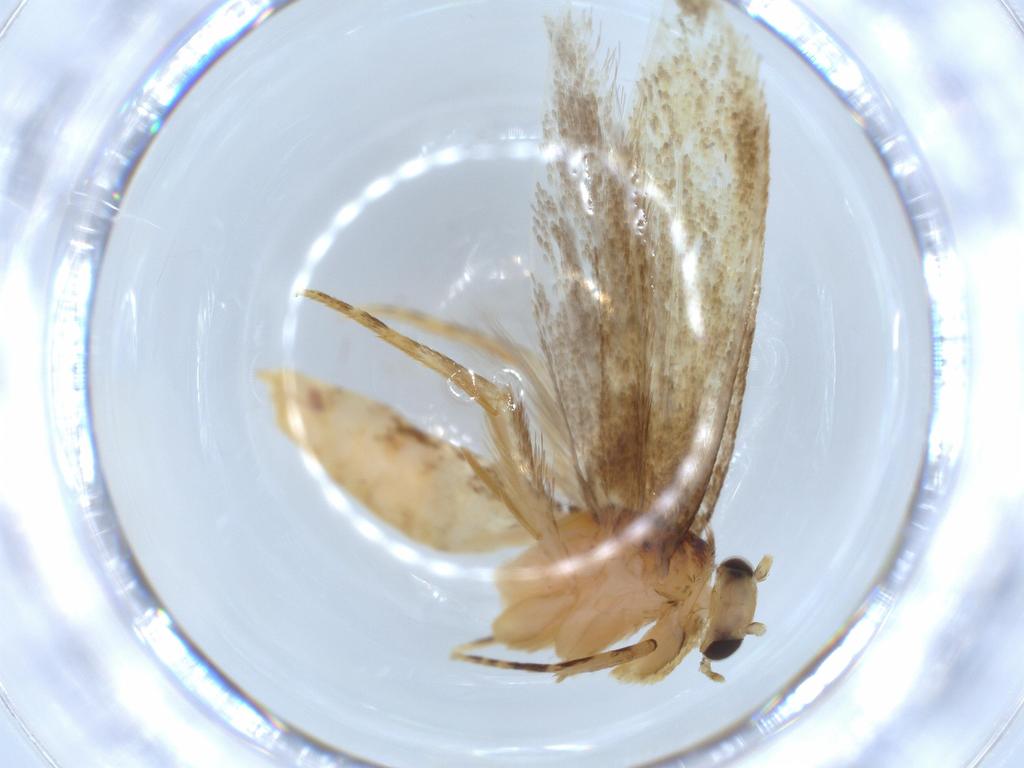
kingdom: Animalia
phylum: Arthropoda
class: Insecta
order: Lepidoptera
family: Tineidae
